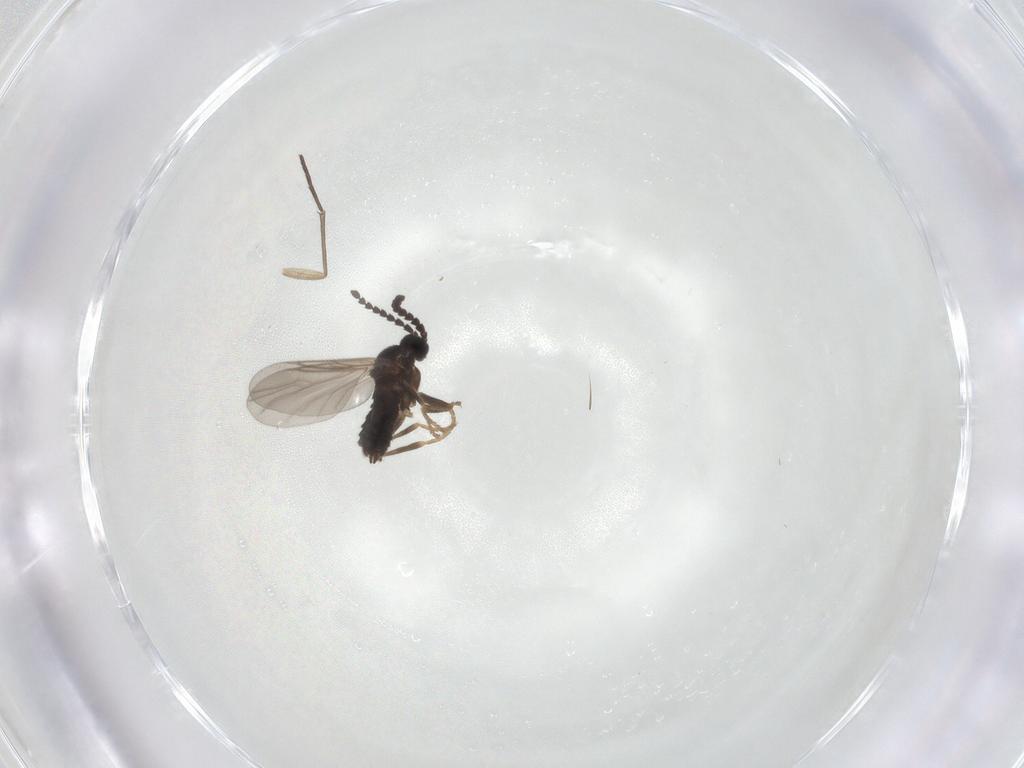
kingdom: Animalia
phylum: Arthropoda
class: Insecta
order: Diptera
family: Scatopsidae
